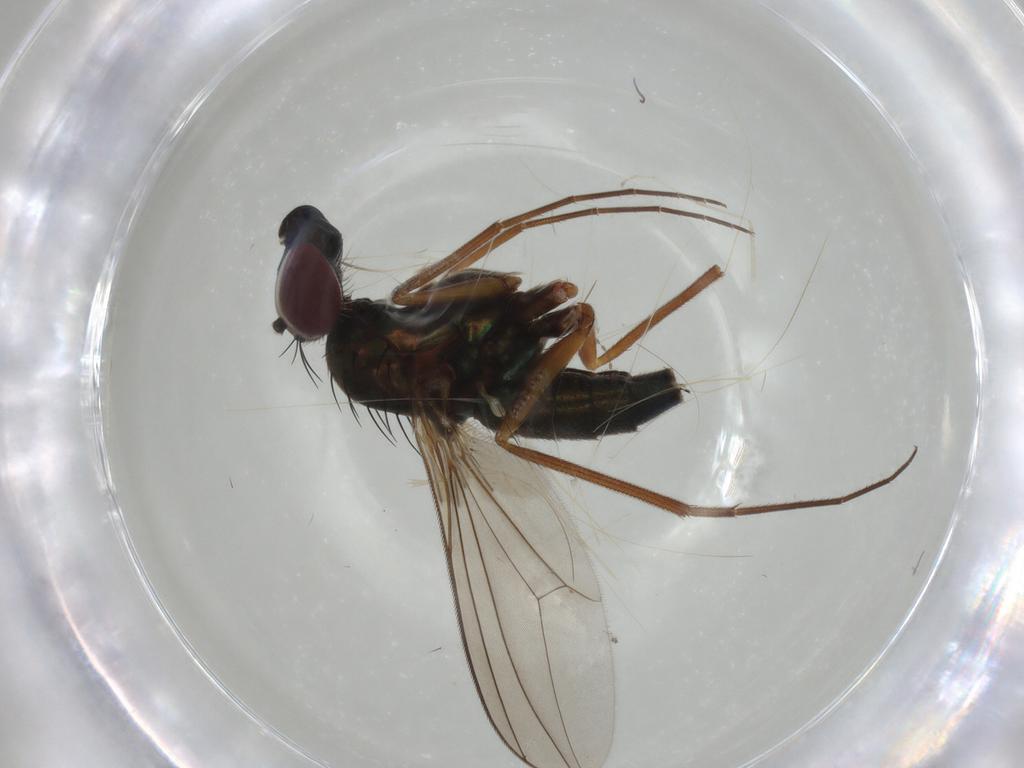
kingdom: Animalia
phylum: Arthropoda
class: Insecta
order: Diptera
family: Dolichopodidae
